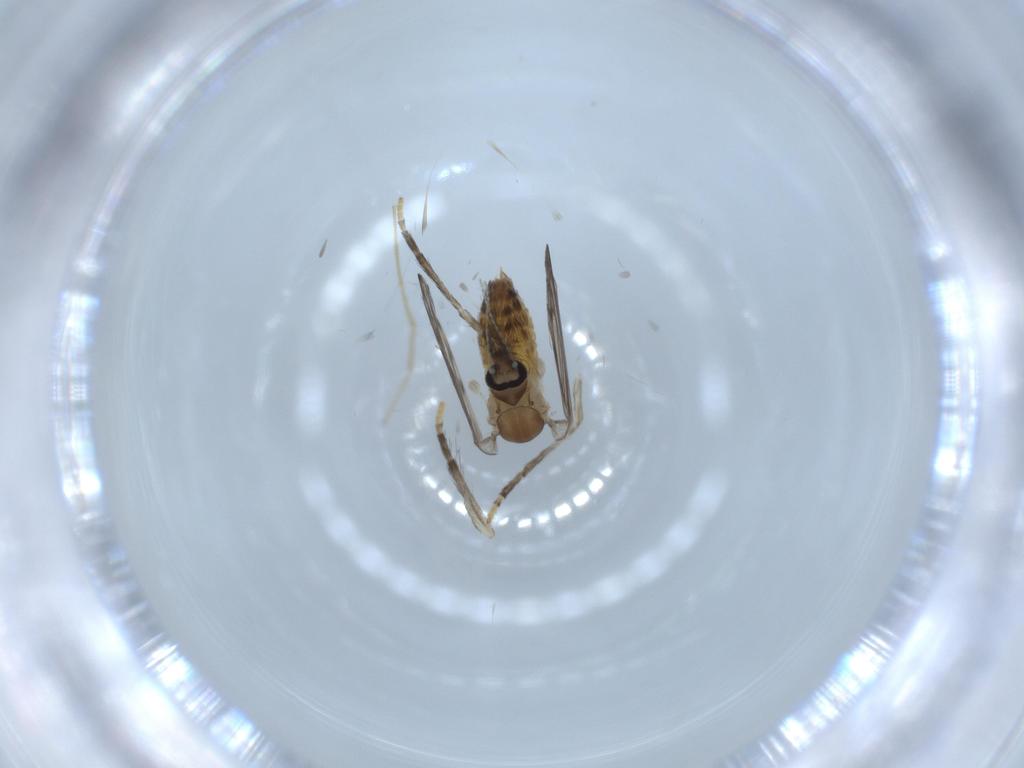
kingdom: Animalia
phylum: Arthropoda
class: Insecta
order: Diptera
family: Psychodidae
